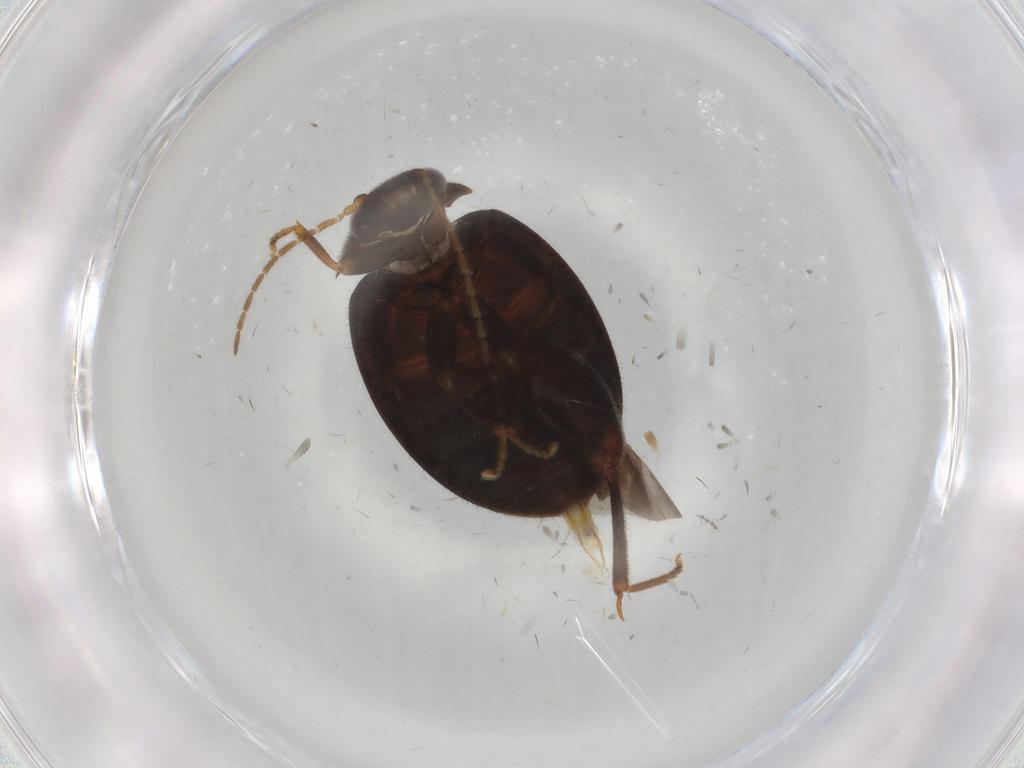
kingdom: Animalia
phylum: Arthropoda
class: Insecta
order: Coleoptera
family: Scirtidae
